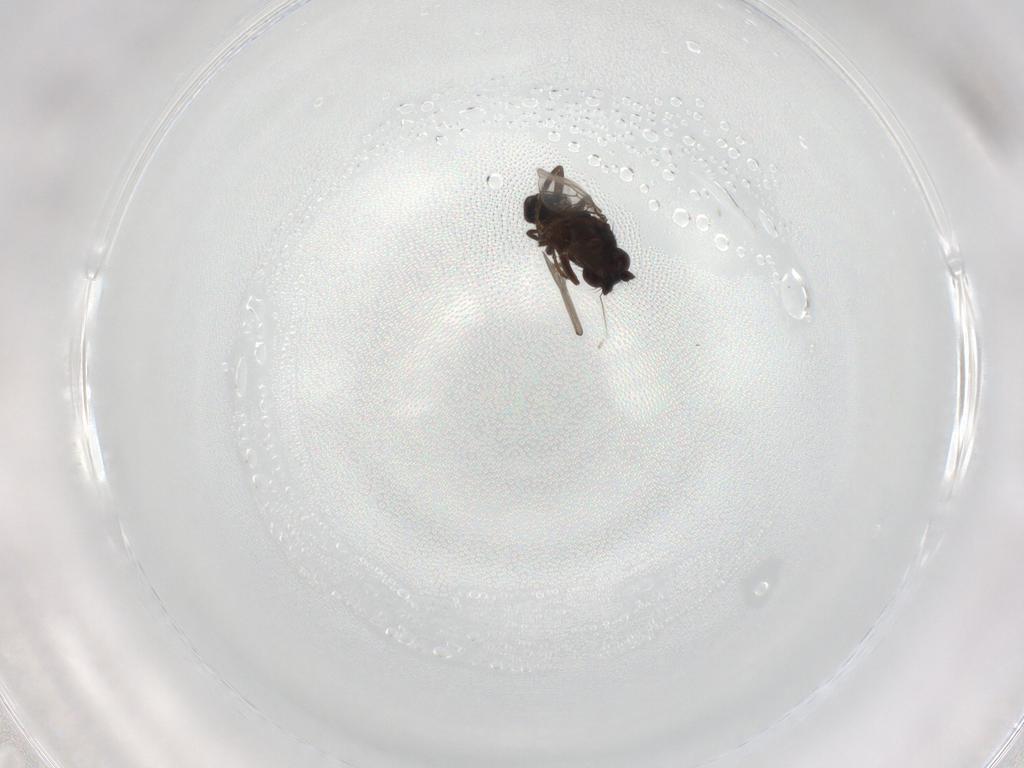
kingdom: Animalia
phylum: Arthropoda
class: Insecta
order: Diptera
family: Sphaeroceridae
